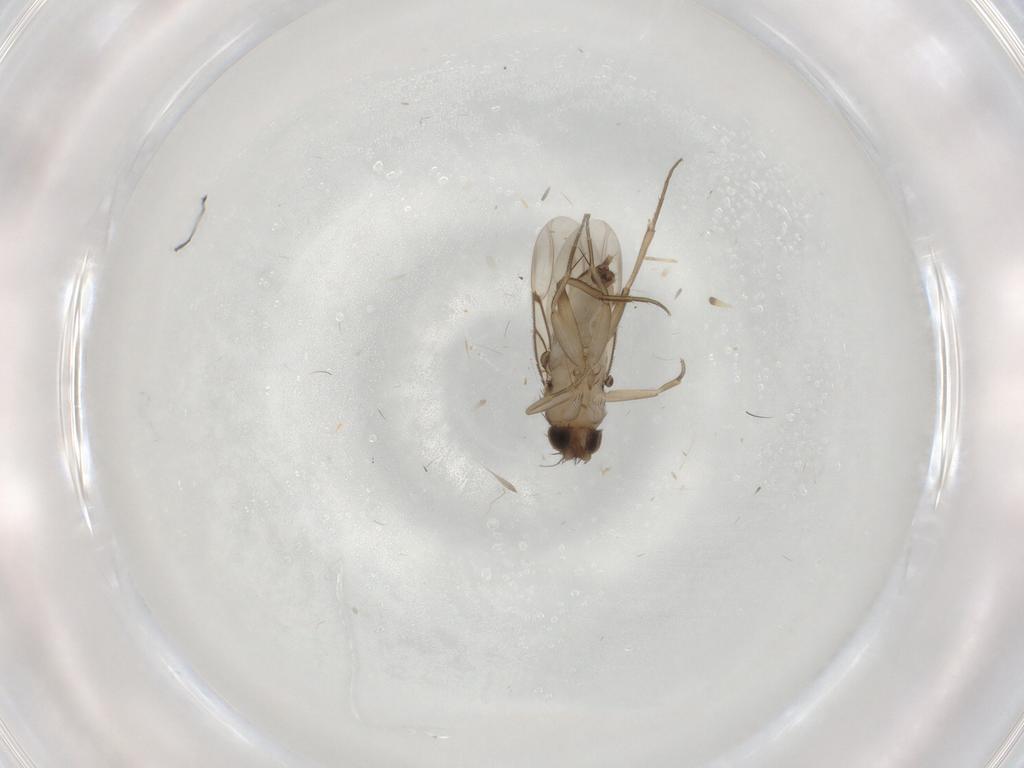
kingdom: Animalia
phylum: Arthropoda
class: Insecta
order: Diptera
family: Phoridae
